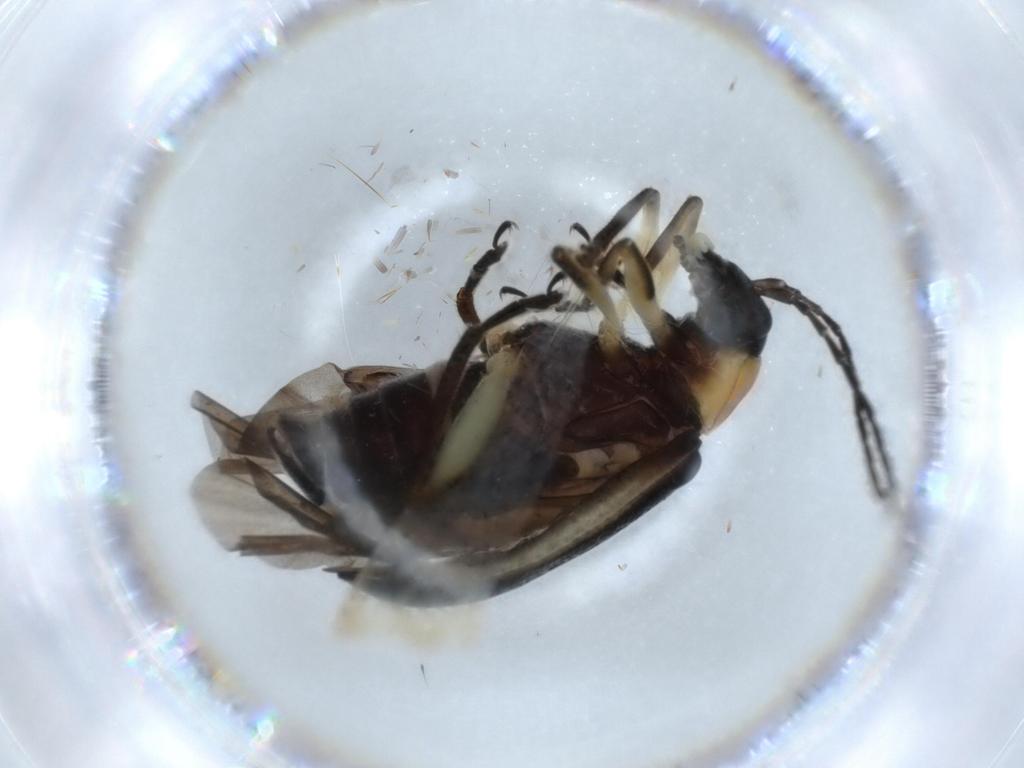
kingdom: Animalia
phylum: Arthropoda
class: Insecta
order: Coleoptera
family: Chrysomelidae
